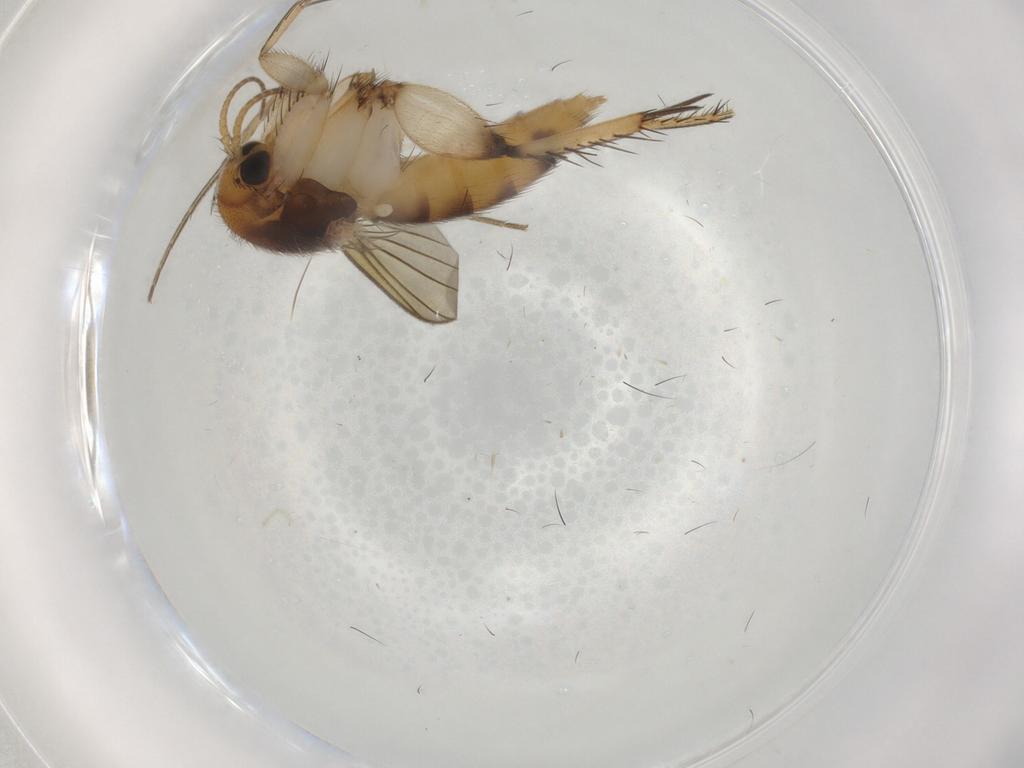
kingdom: Animalia
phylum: Arthropoda
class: Insecta
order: Diptera
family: Mycetophilidae
